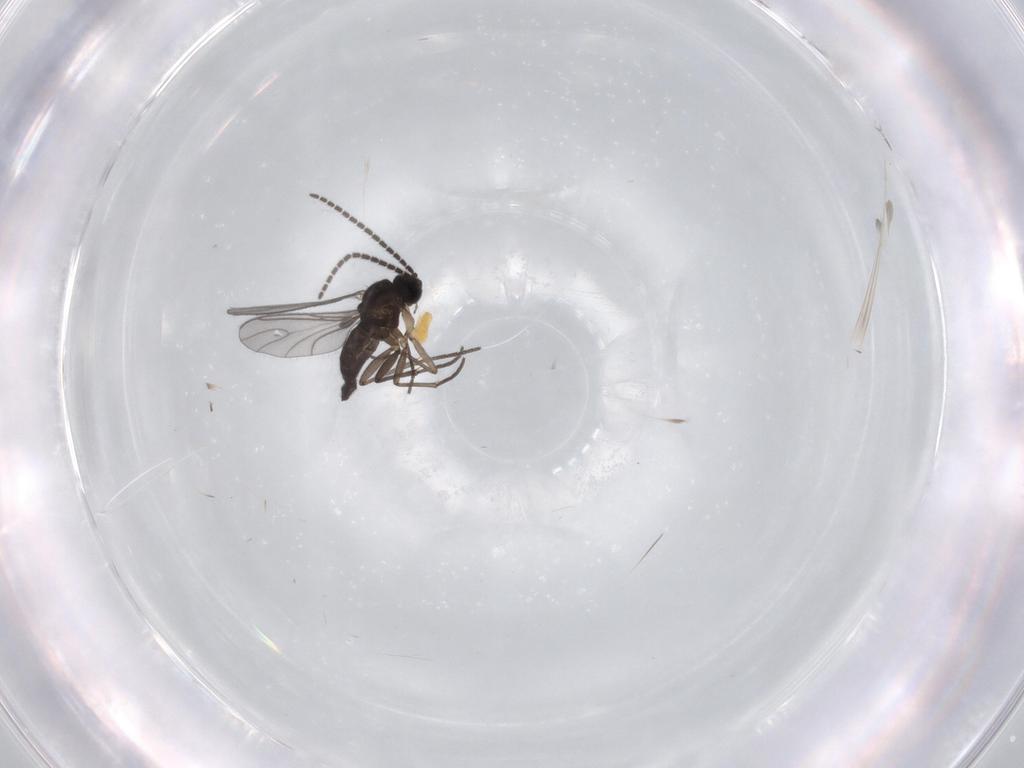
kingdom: Animalia
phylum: Arthropoda
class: Insecta
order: Diptera
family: Sciaridae
